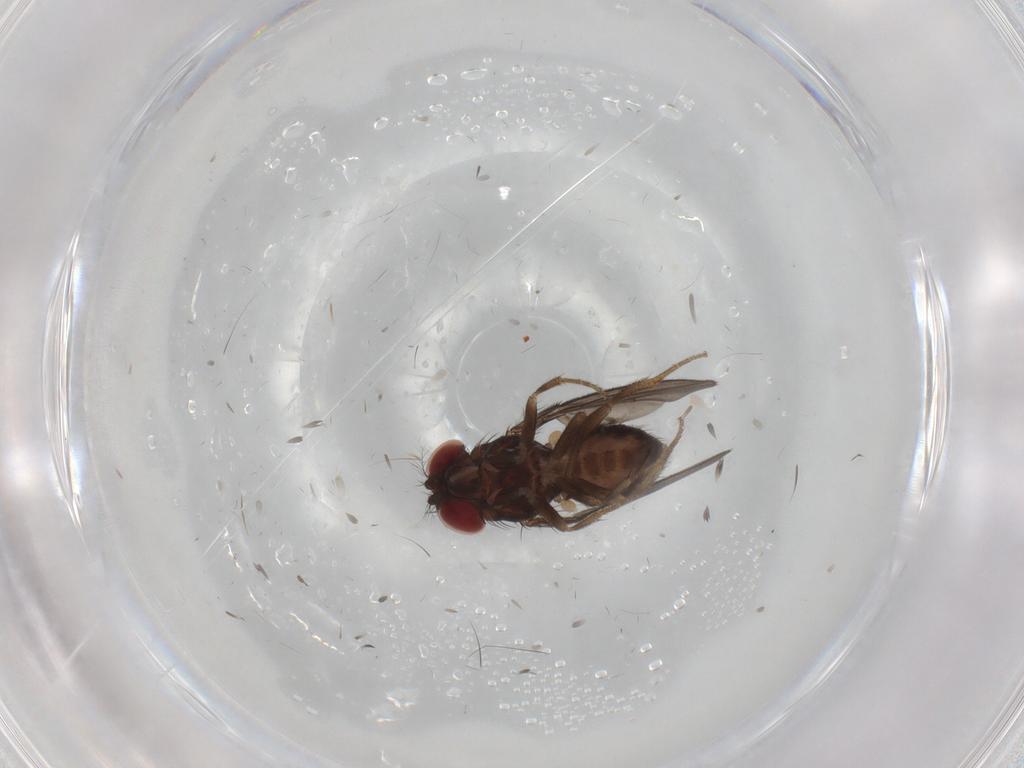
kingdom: Animalia
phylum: Arthropoda
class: Insecta
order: Diptera
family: Drosophilidae
